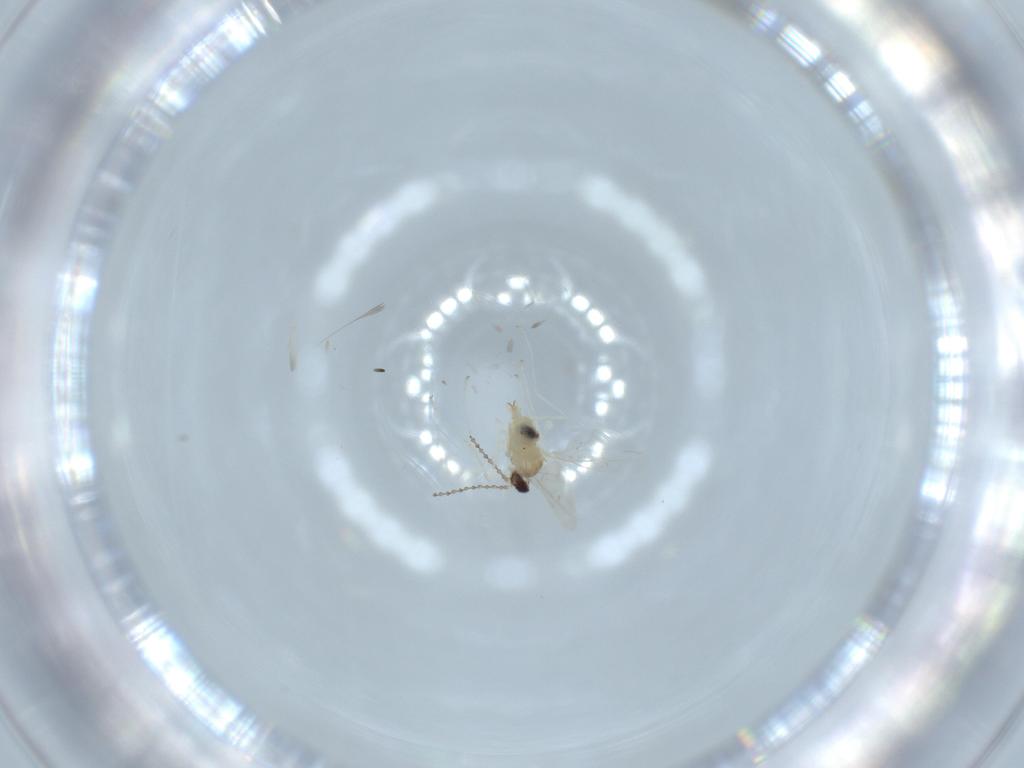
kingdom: Animalia
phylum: Arthropoda
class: Insecta
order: Diptera
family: Cecidomyiidae
